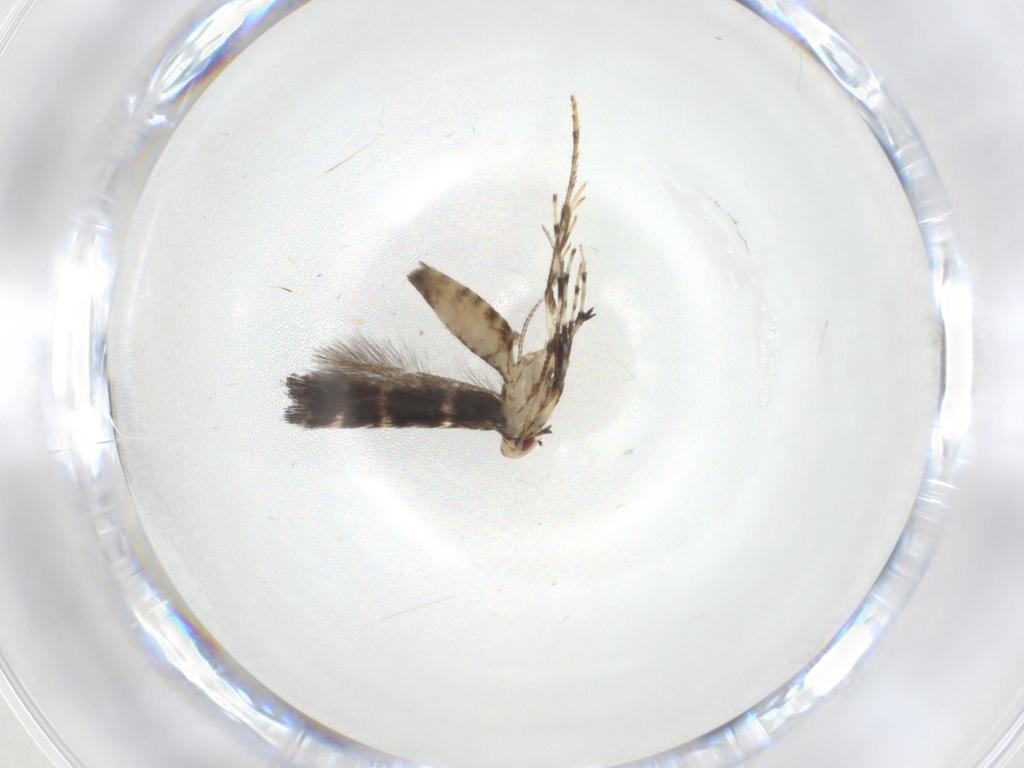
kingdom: Animalia
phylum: Arthropoda
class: Insecta
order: Lepidoptera
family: Gracillariidae
